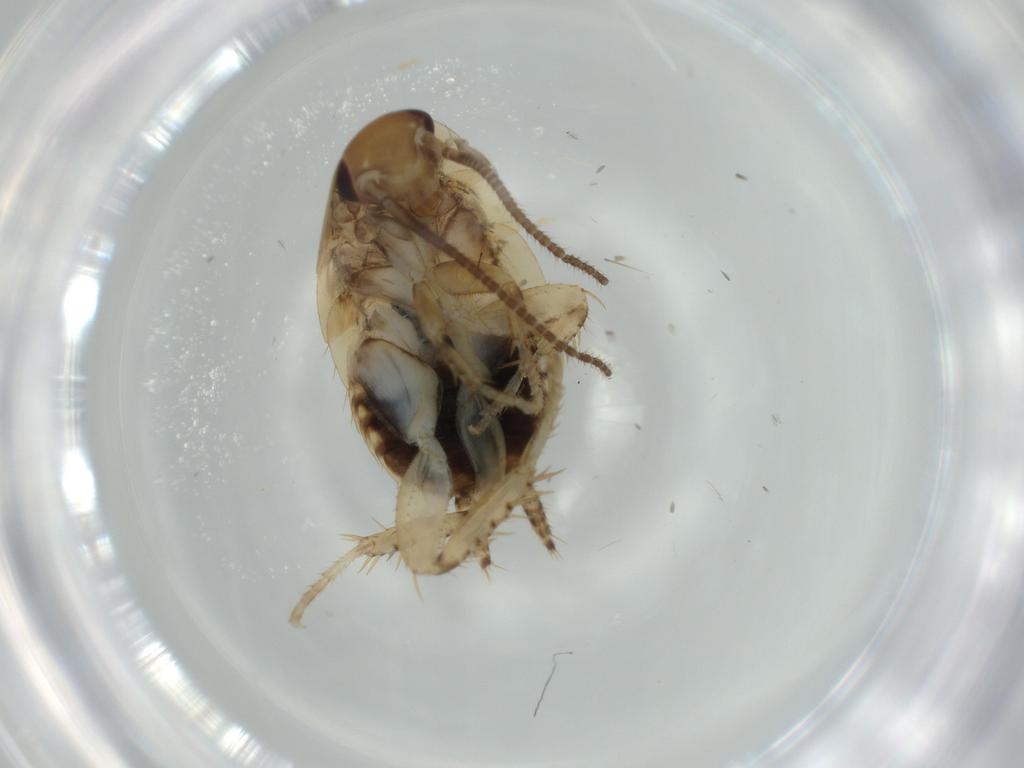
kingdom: Animalia
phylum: Arthropoda
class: Insecta
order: Blattodea
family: Ectobiidae
